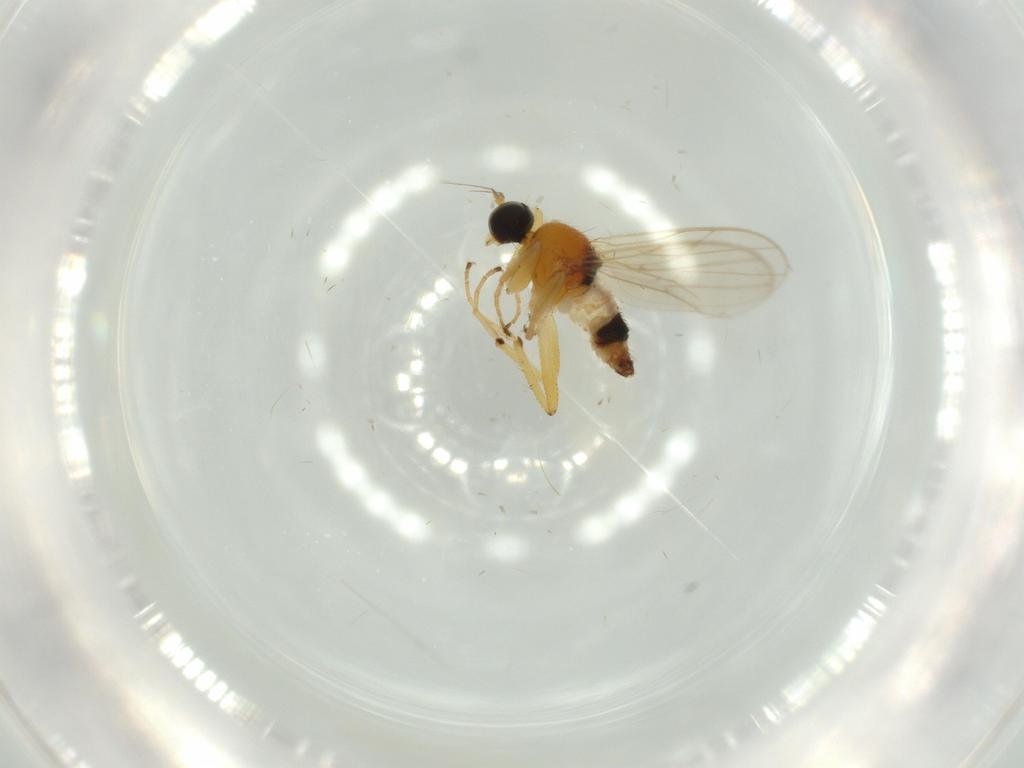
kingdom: Animalia
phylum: Arthropoda
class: Insecta
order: Diptera
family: Hybotidae
